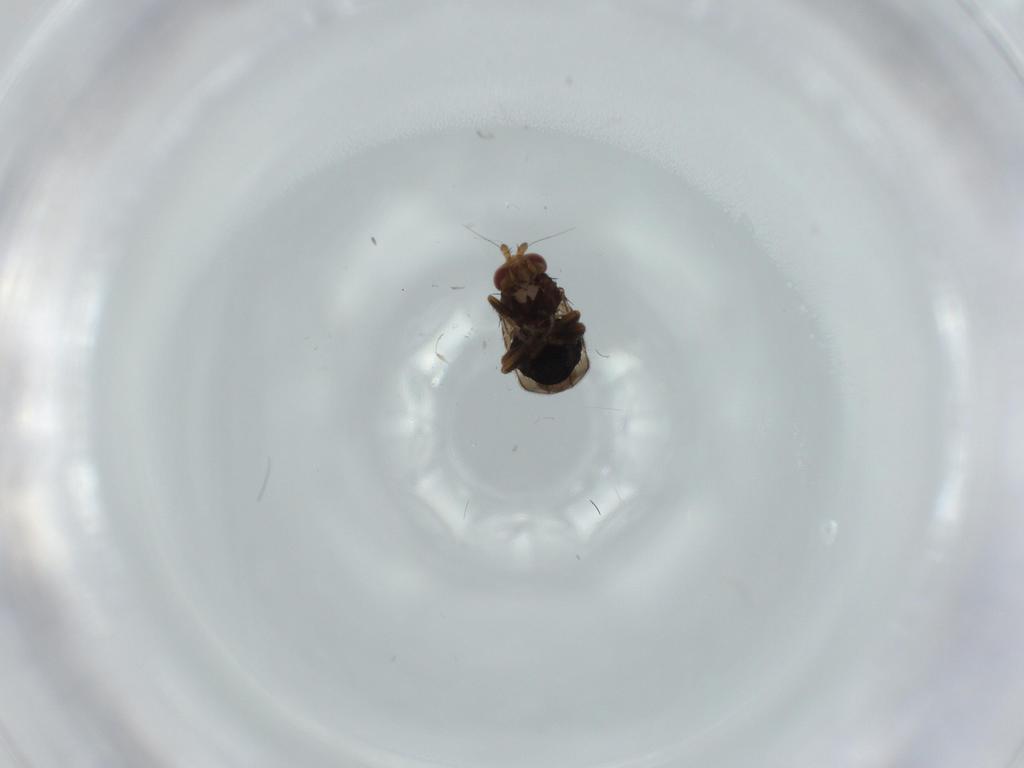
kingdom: Animalia
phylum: Arthropoda
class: Insecta
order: Diptera
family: Sphaeroceridae
